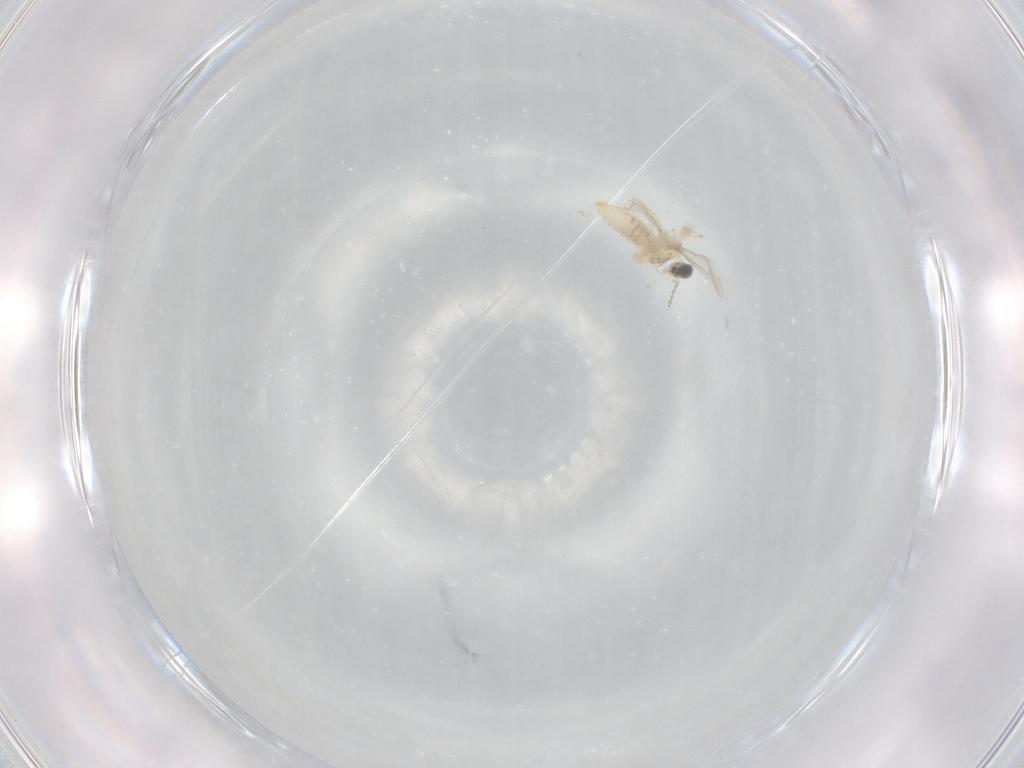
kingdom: Animalia
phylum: Arthropoda
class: Insecta
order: Diptera
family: Cecidomyiidae
